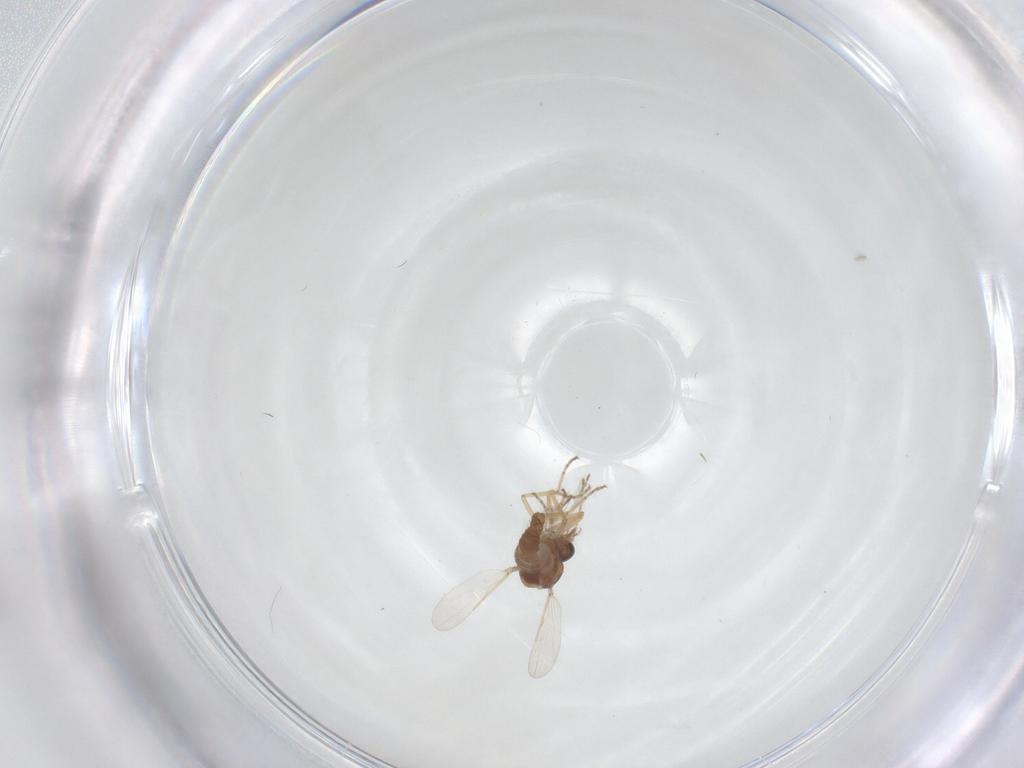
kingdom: Animalia
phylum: Arthropoda
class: Insecta
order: Diptera
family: Ceratopogonidae
